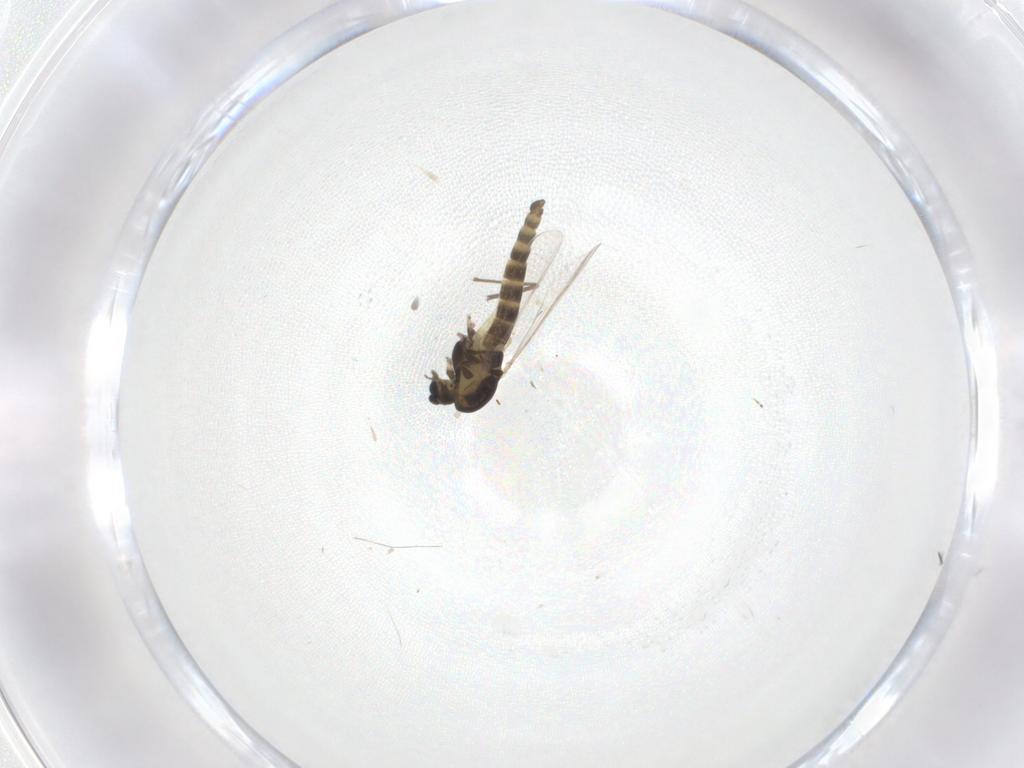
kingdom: Animalia
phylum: Arthropoda
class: Insecta
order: Diptera
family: Chironomidae
